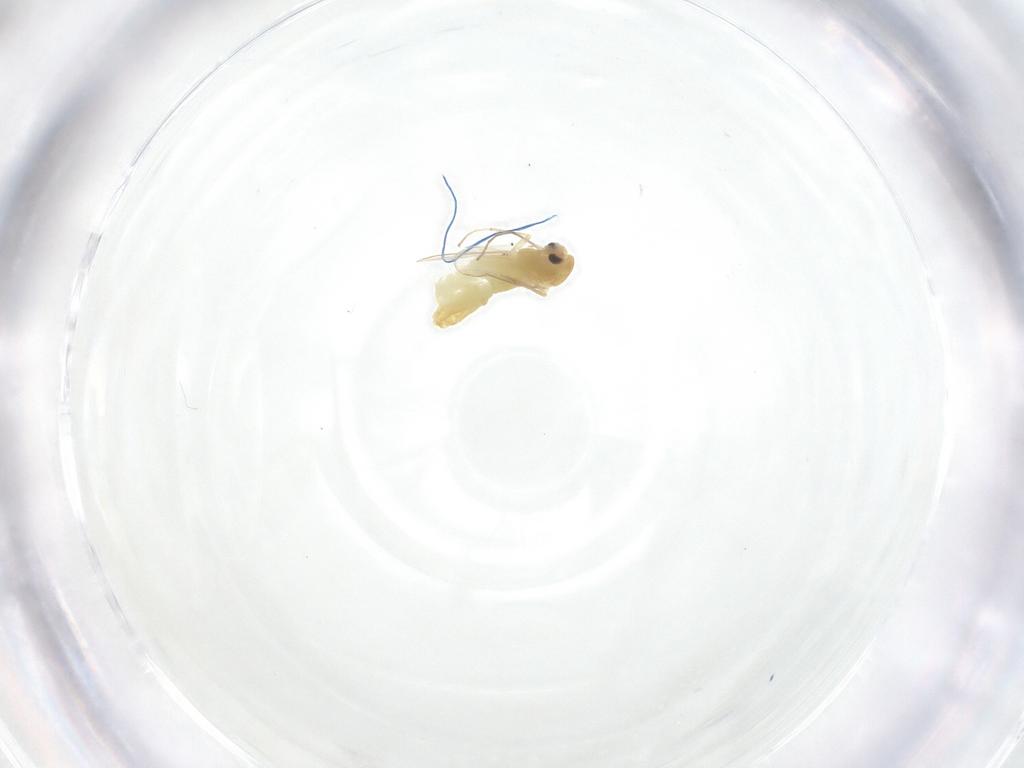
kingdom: Animalia
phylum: Arthropoda
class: Insecta
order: Diptera
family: Chironomidae
